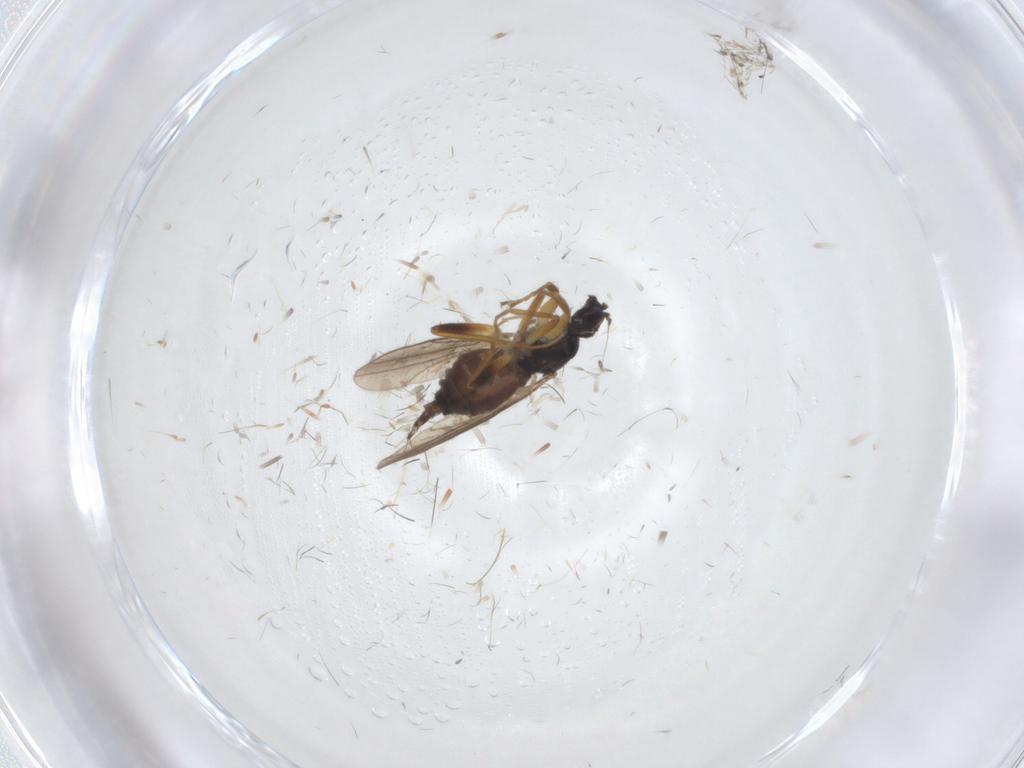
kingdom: Animalia
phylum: Arthropoda
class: Insecta
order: Diptera
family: Hybotidae
